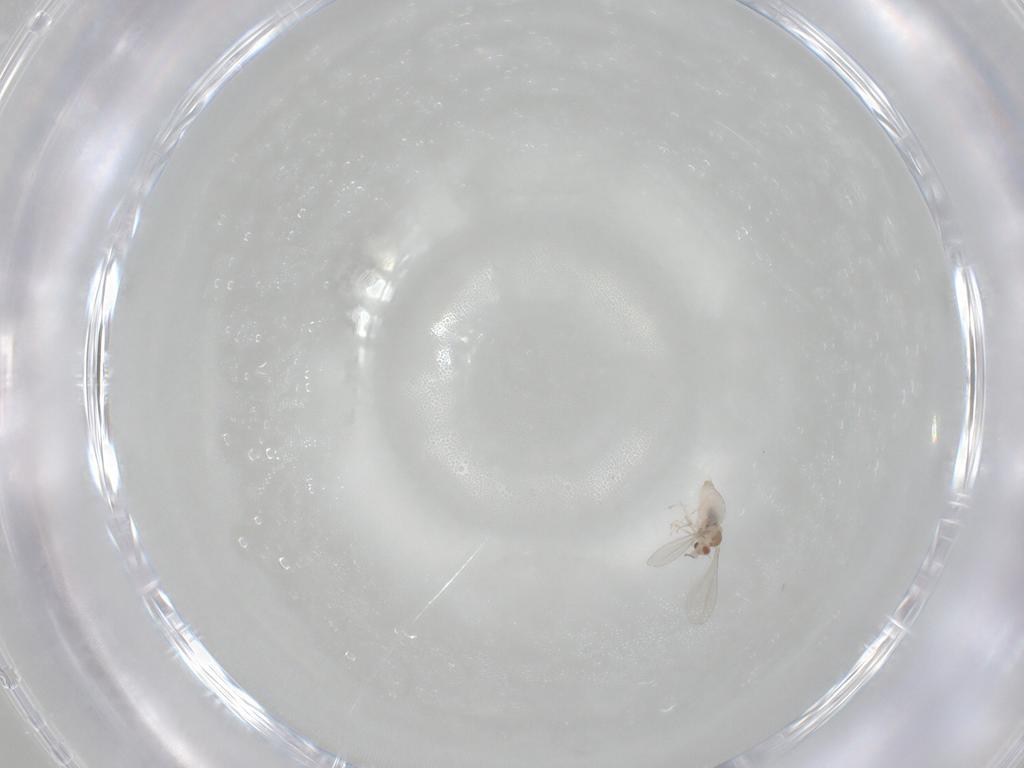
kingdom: Animalia
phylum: Arthropoda
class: Insecta
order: Diptera
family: Cecidomyiidae
